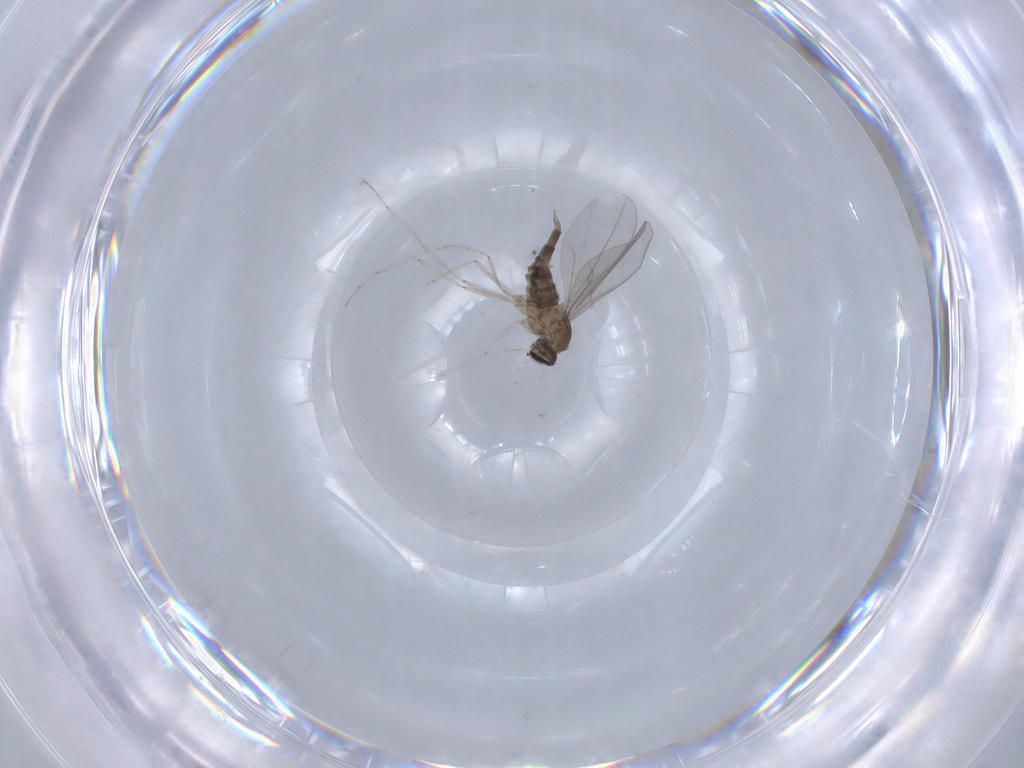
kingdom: Animalia
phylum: Arthropoda
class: Insecta
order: Diptera
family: Cecidomyiidae
